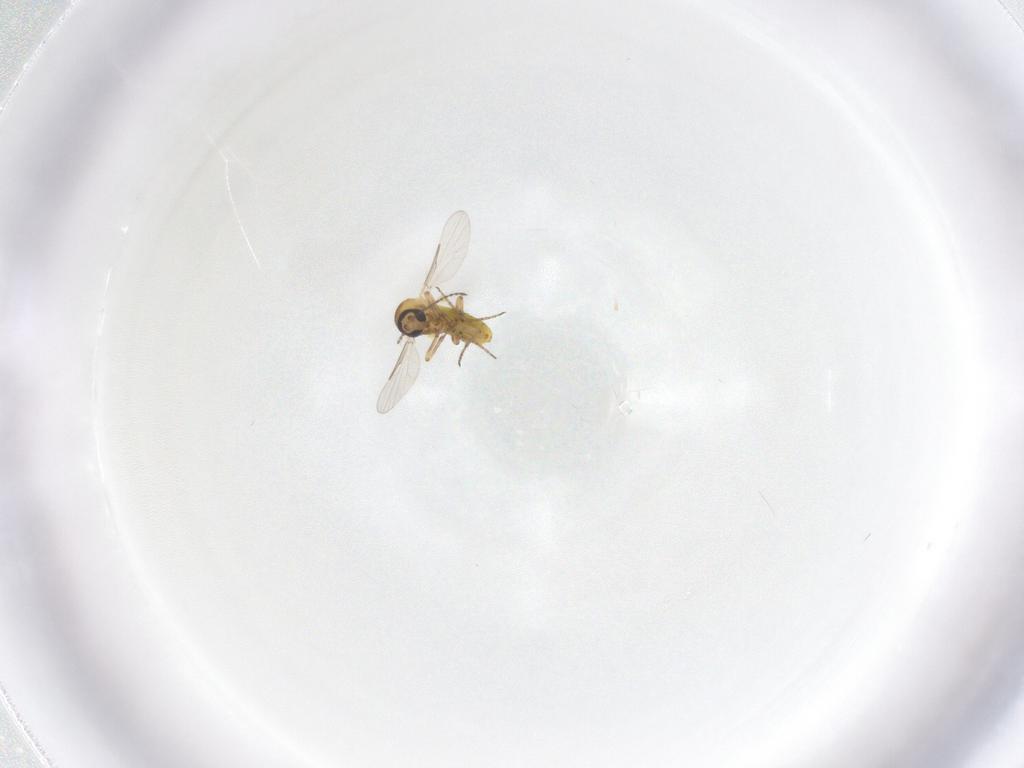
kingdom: Animalia
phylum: Arthropoda
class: Insecta
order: Diptera
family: Ceratopogonidae
